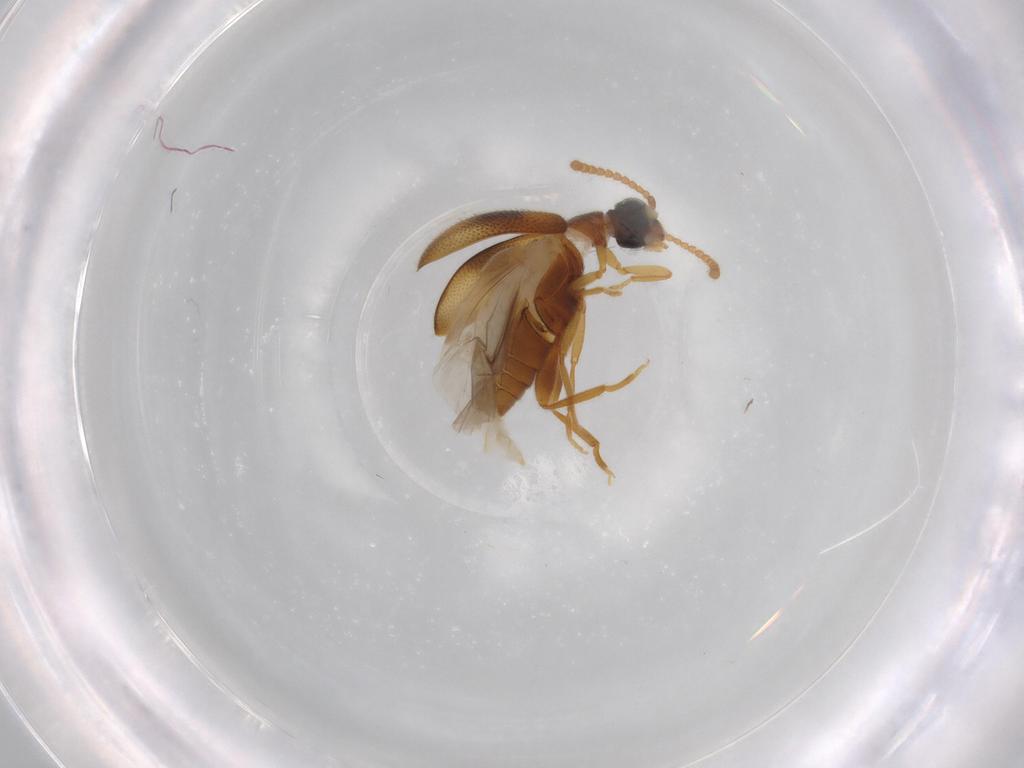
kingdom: Animalia
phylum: Arthropoda
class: Insecta
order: Coleoptera
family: Aderidae
